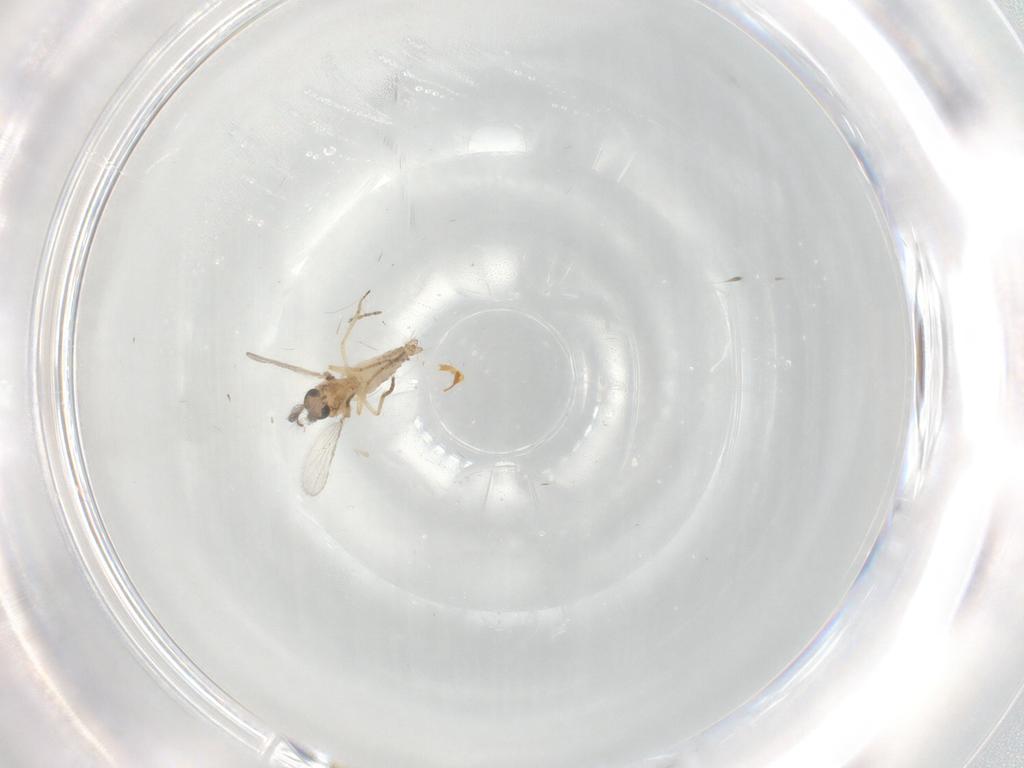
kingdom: Animalia
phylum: Arthropoda
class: Insecta
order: Diptera
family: Ceratopogonidae
